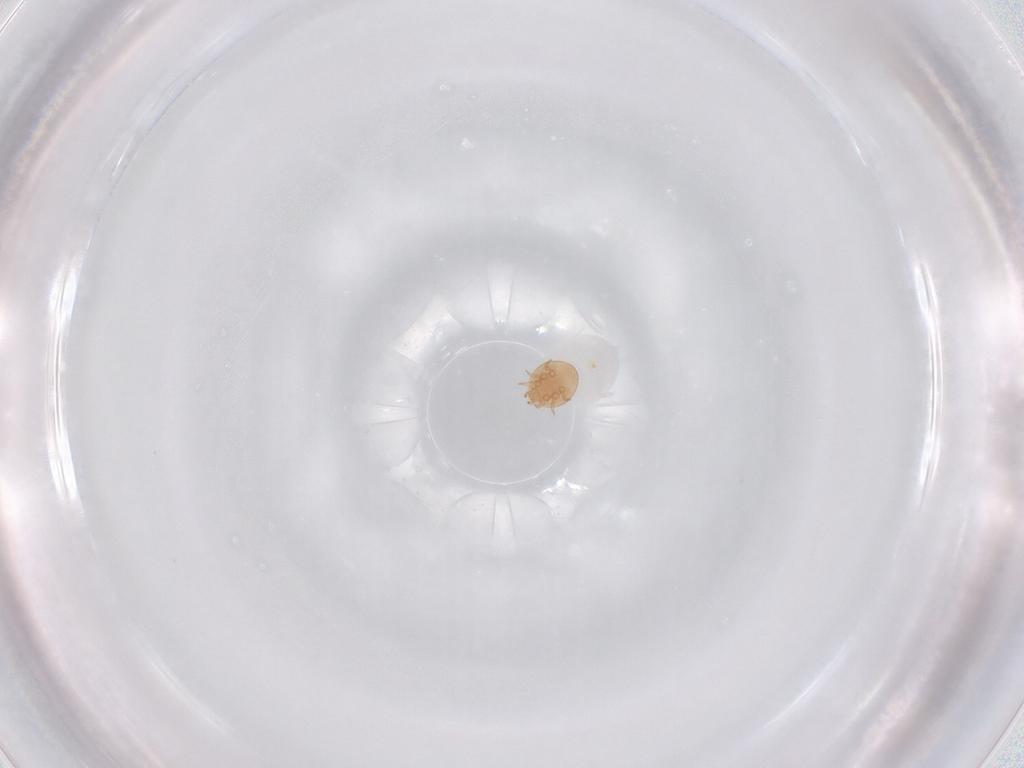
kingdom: Animalia
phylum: Arthropoda
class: Arachnida
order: Mesostigmata
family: Trematuridae
